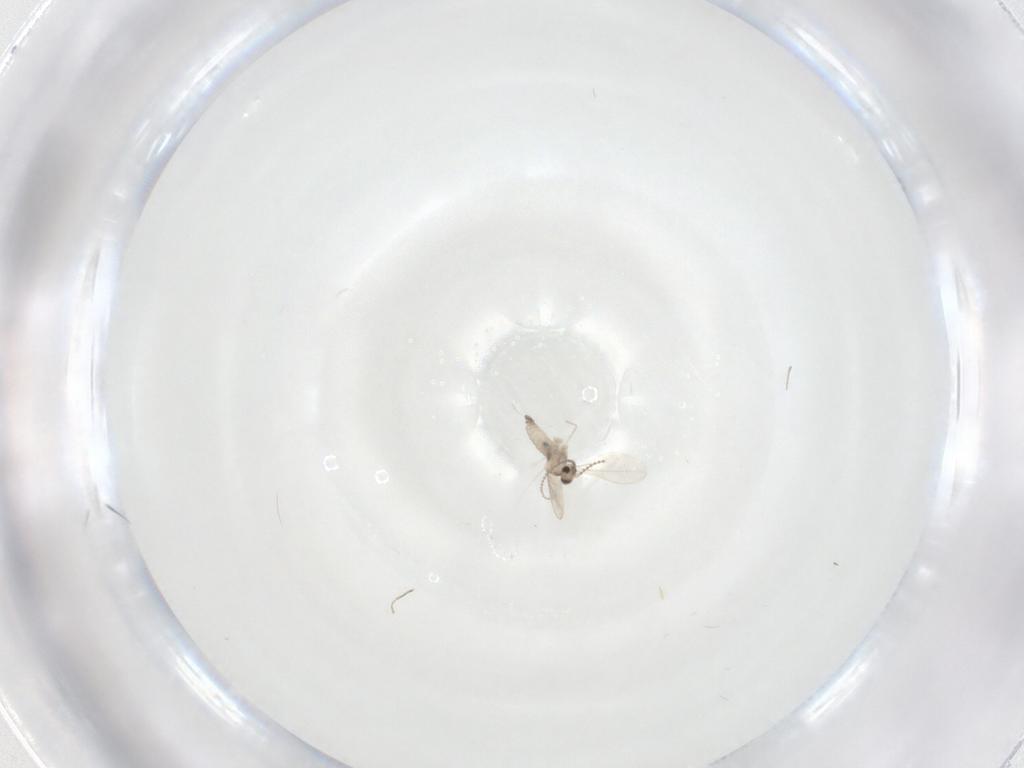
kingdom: Animalia
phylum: Arthropoda
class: Insecta
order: Diptera
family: Chironomidae
